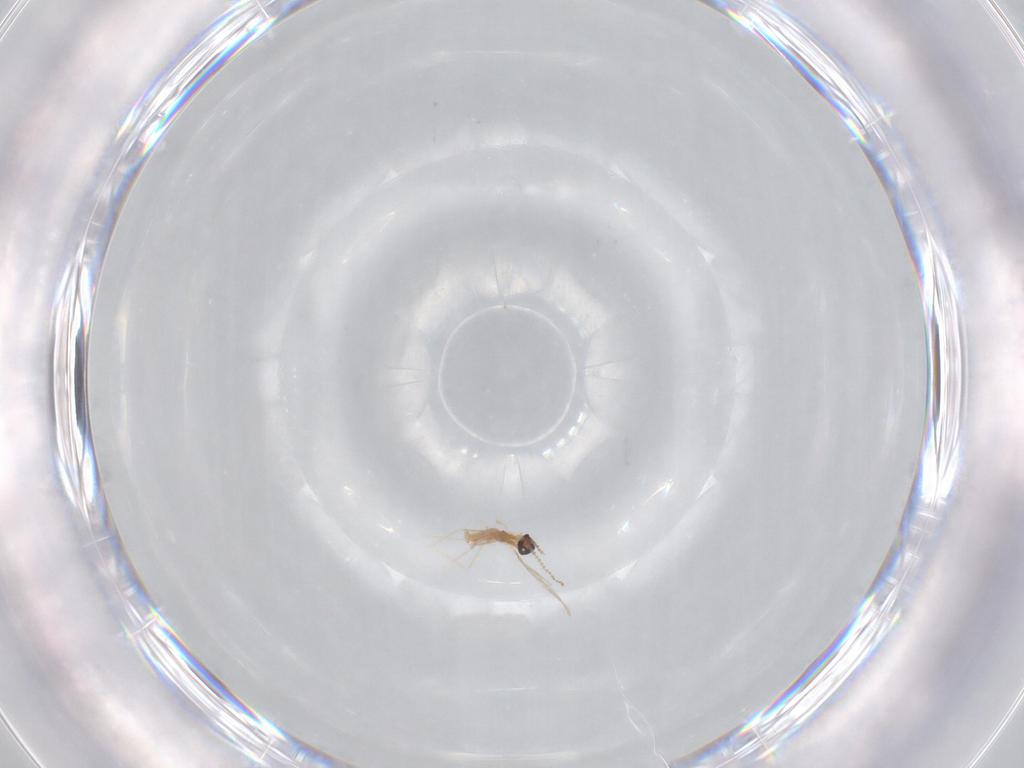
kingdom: Animalia
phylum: Arthropoda
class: Insecta
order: Diptera
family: Cecidomyiidae
